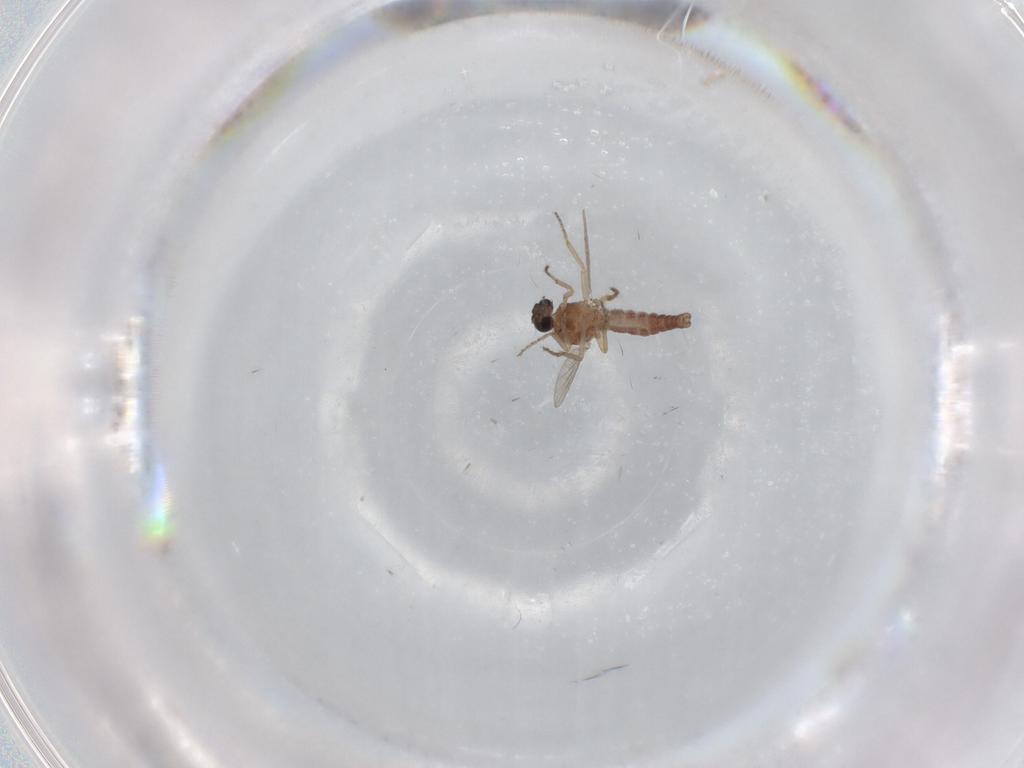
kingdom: Animalia
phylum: Arthropoda
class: Insecta
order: Diptera
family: Ceratopogonidae
